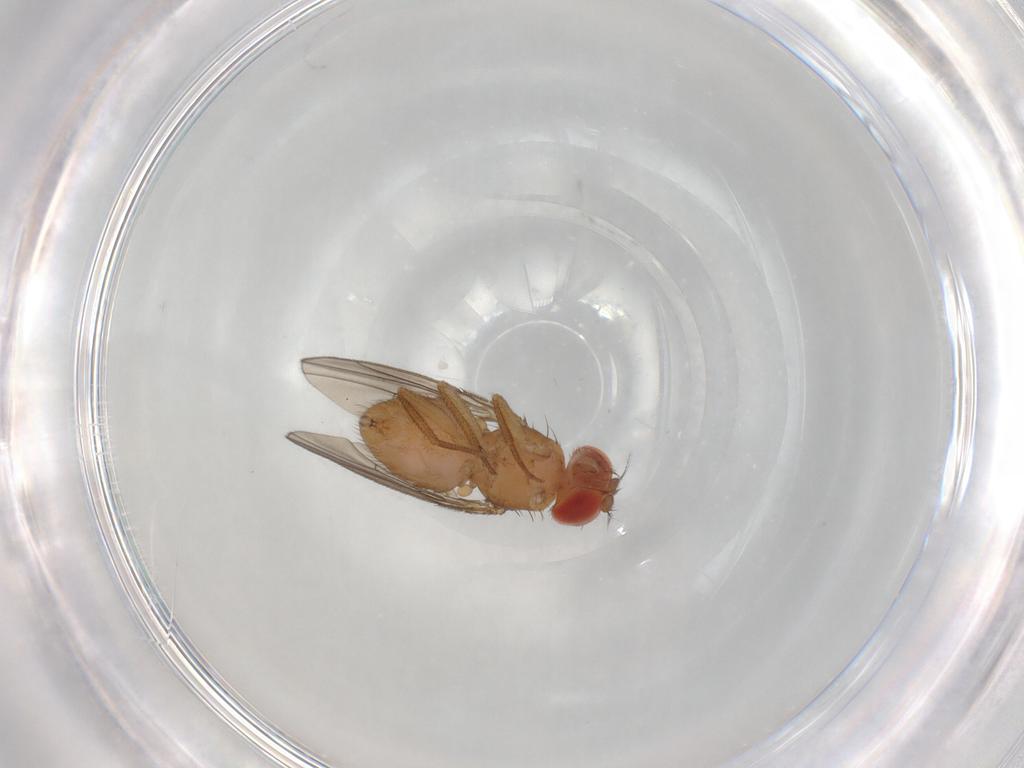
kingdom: Animalia
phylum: Arthropoda
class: Insecta
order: Diptera
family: Drosophilidae
